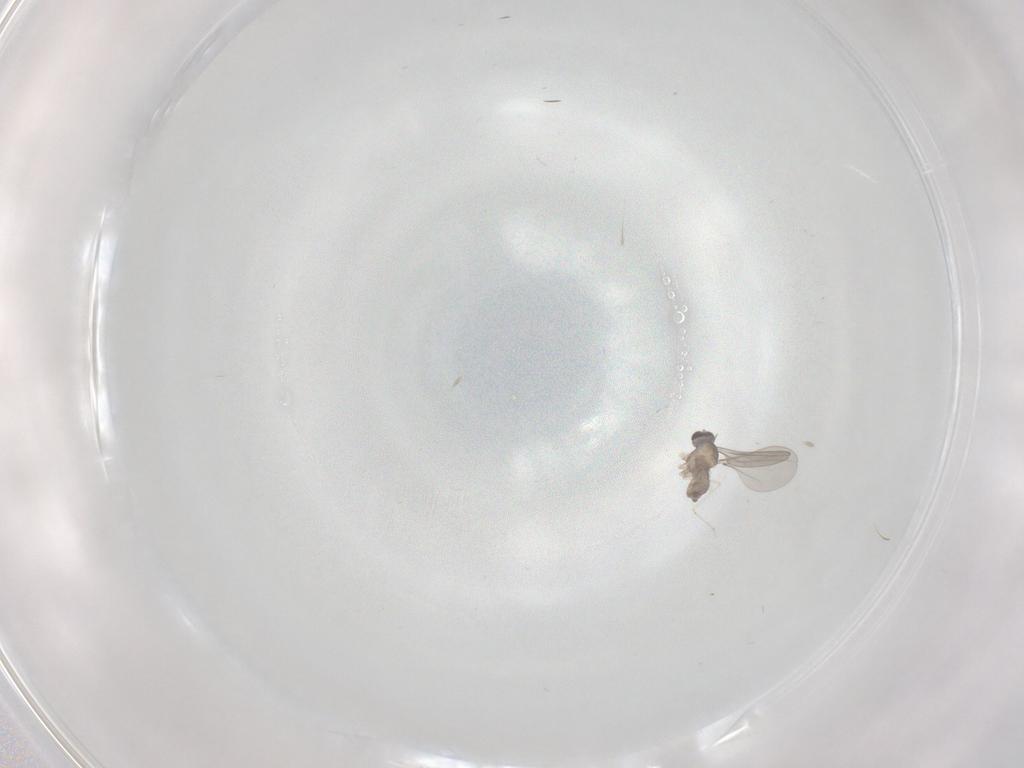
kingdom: Animalia
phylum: Arthropoda
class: Insecta
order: Diptera
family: Cecidomyiidae
